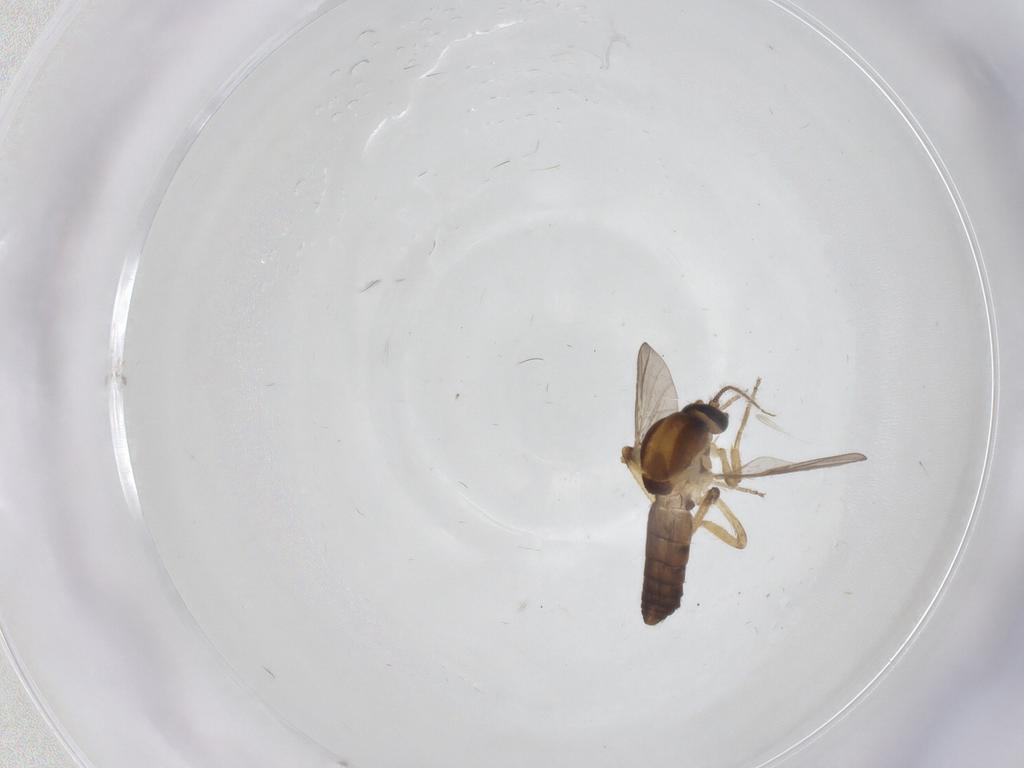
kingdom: Animalia
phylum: Arthropoda
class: Insecta
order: Diptera
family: Ceratopogonidae
